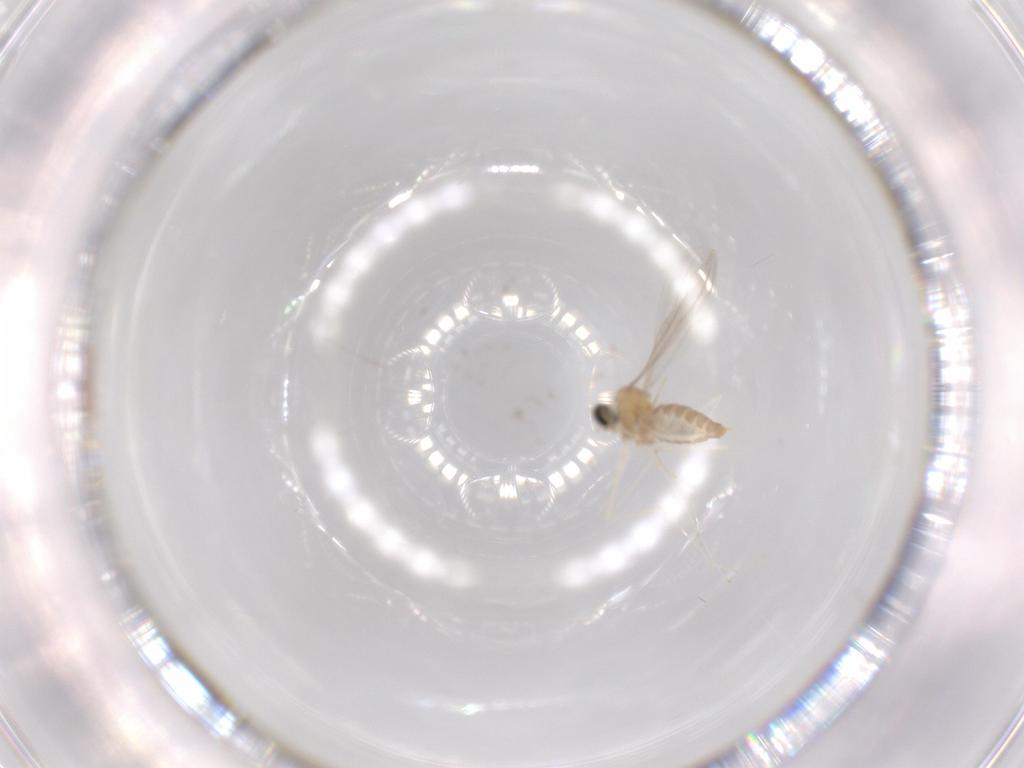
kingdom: Animalia
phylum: Arthropoda
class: Insecta
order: Diptera
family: Cecidomyiidae
